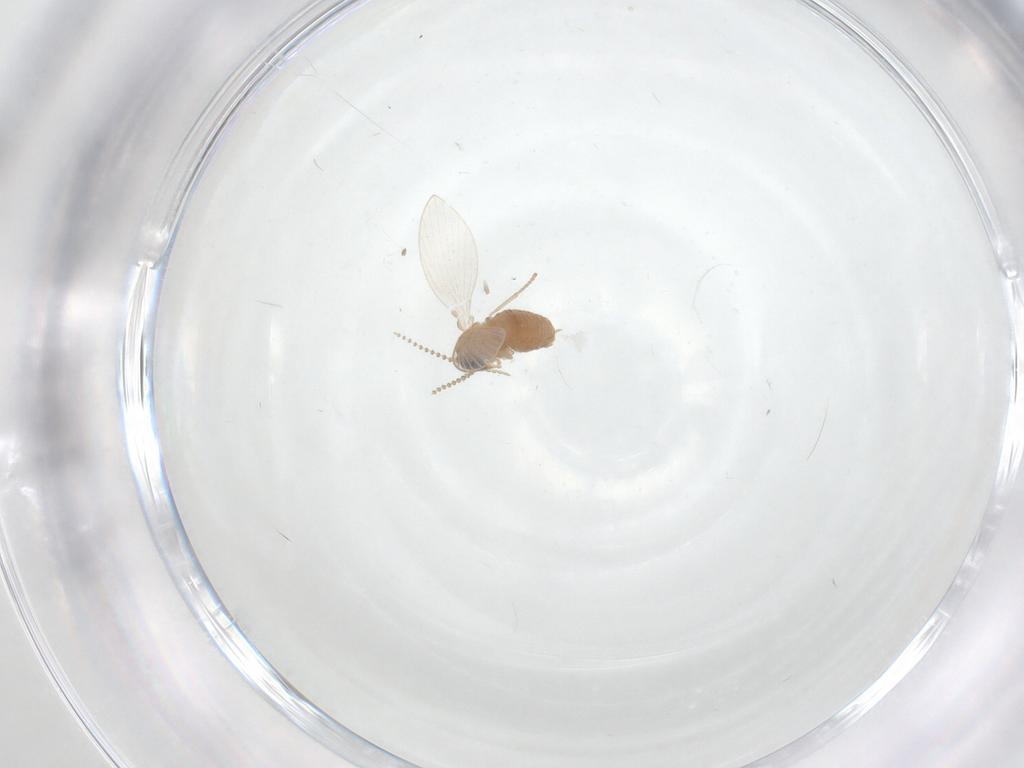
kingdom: Animalia
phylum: Arthropoda
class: Insecta
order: Diptera
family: Psychodidae
